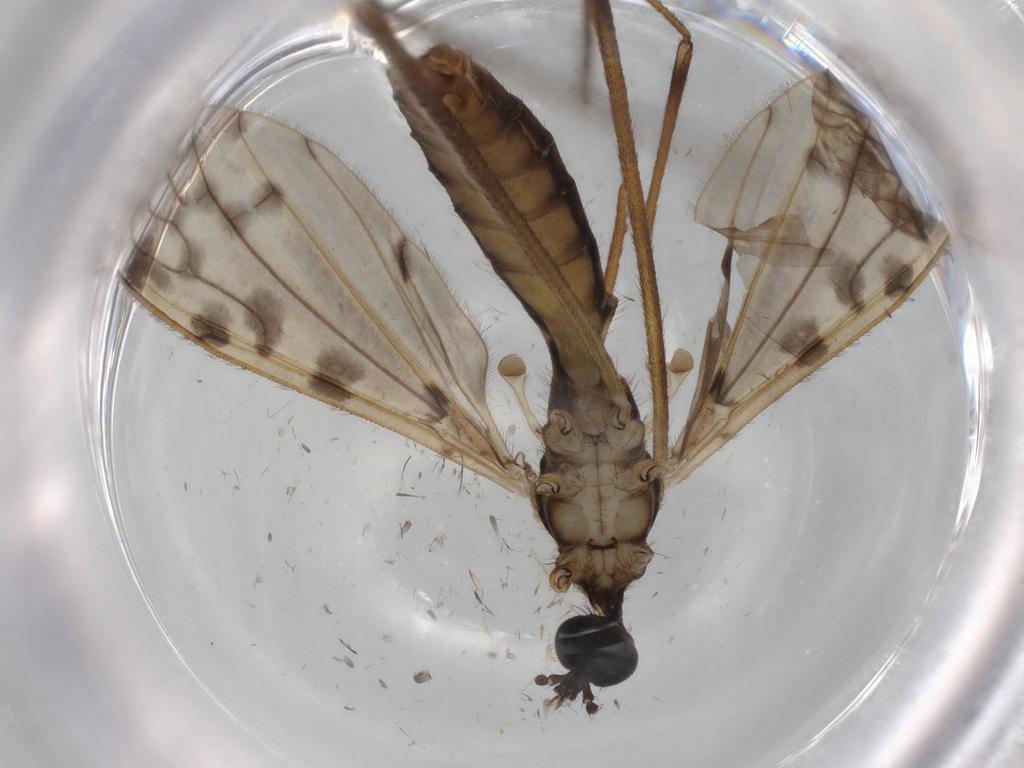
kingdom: Animalia
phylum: Arthropoda
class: Insecta
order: Diptera
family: Limoniidae
